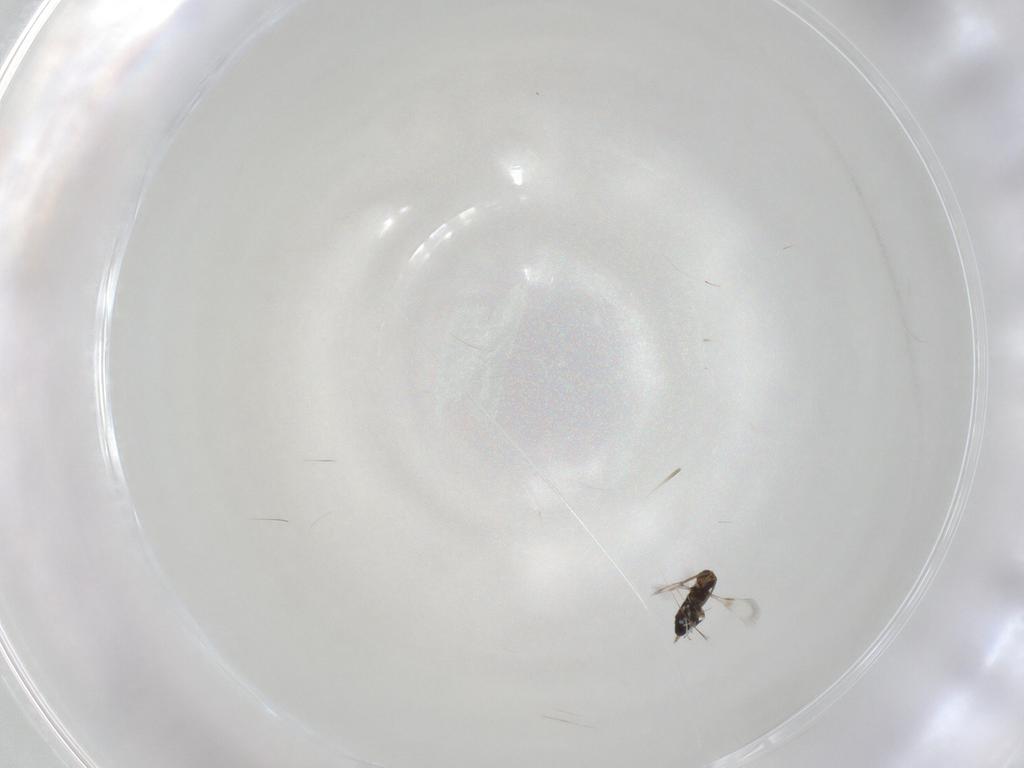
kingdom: Animalia
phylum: Arthropoda
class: Insecta
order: Hymenoptera
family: Signiphoridae
